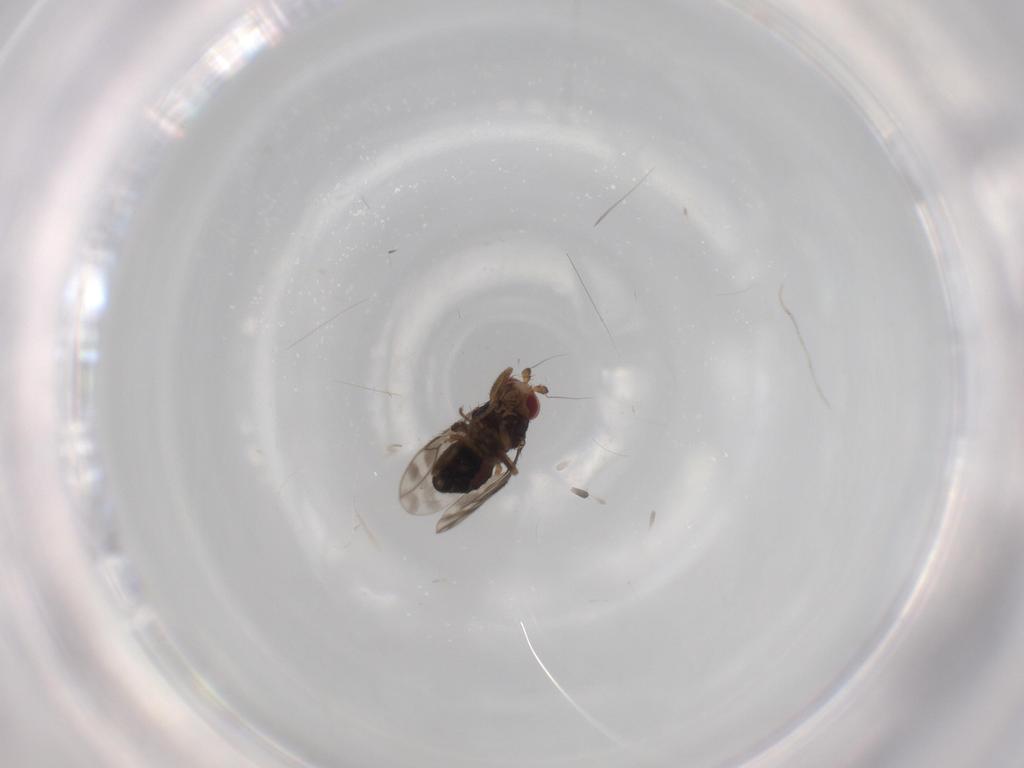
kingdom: Animalia
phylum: Arthropoda
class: Insecta
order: Diptera
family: Sphaeroceridae
